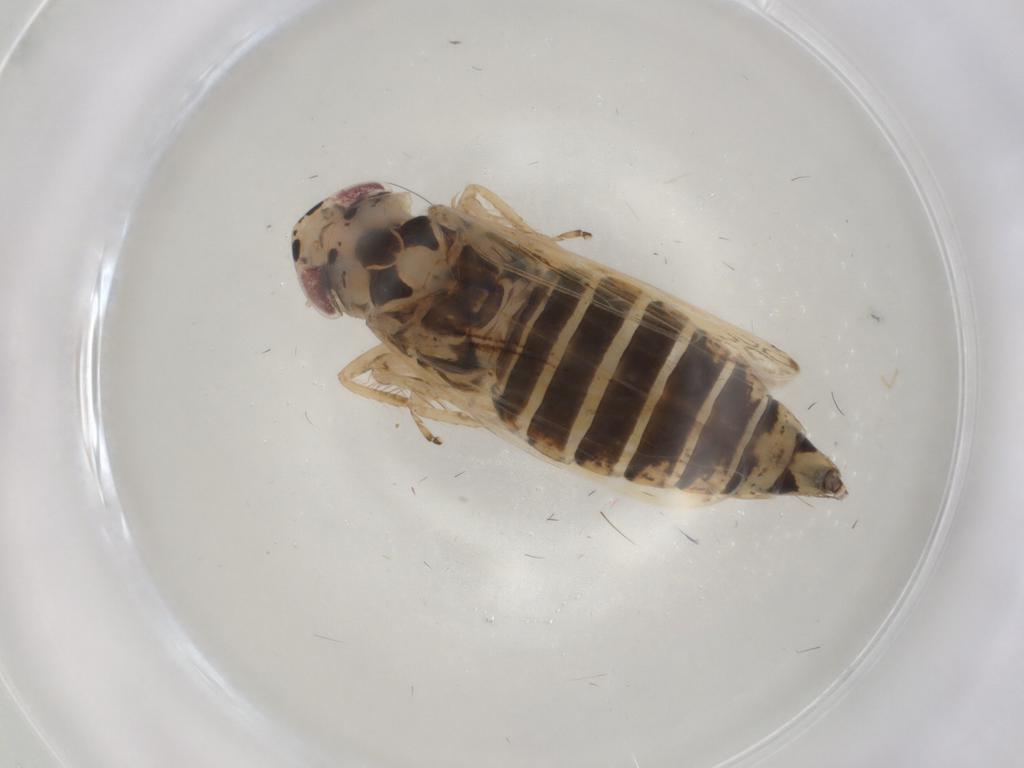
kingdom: Animalia
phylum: Arthropoda
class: Insecta
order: Hemiptera
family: Cicadellidae
